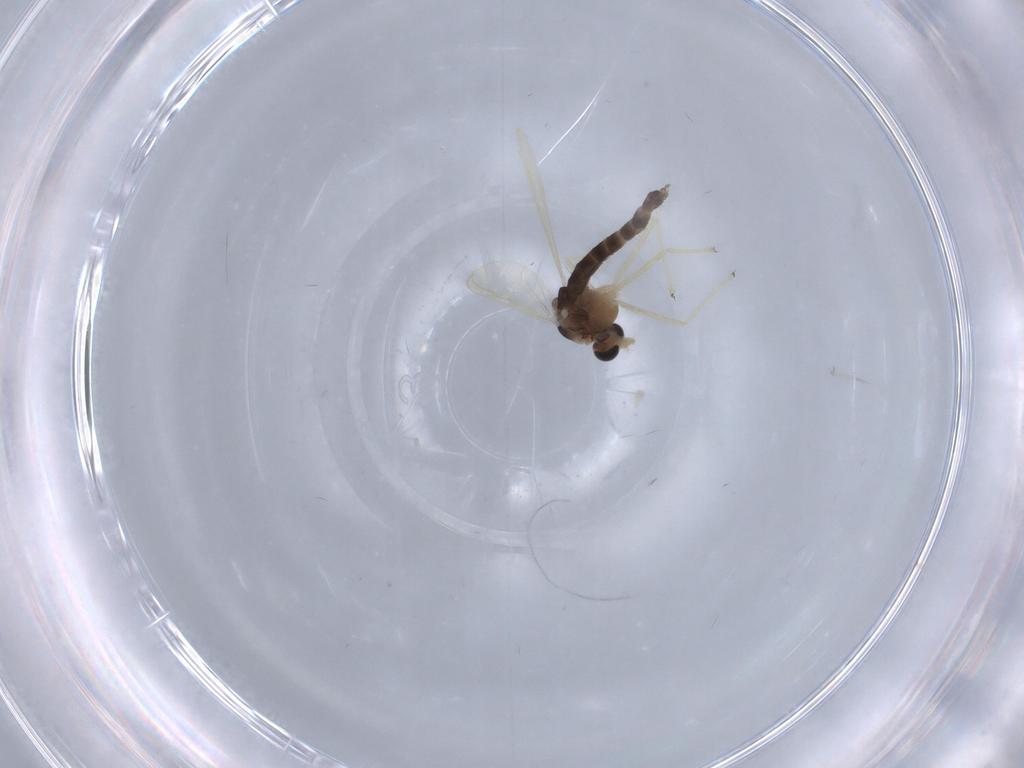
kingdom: Animalia
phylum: Arthropoda
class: Insecta
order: Diptera
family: Chironomidae
